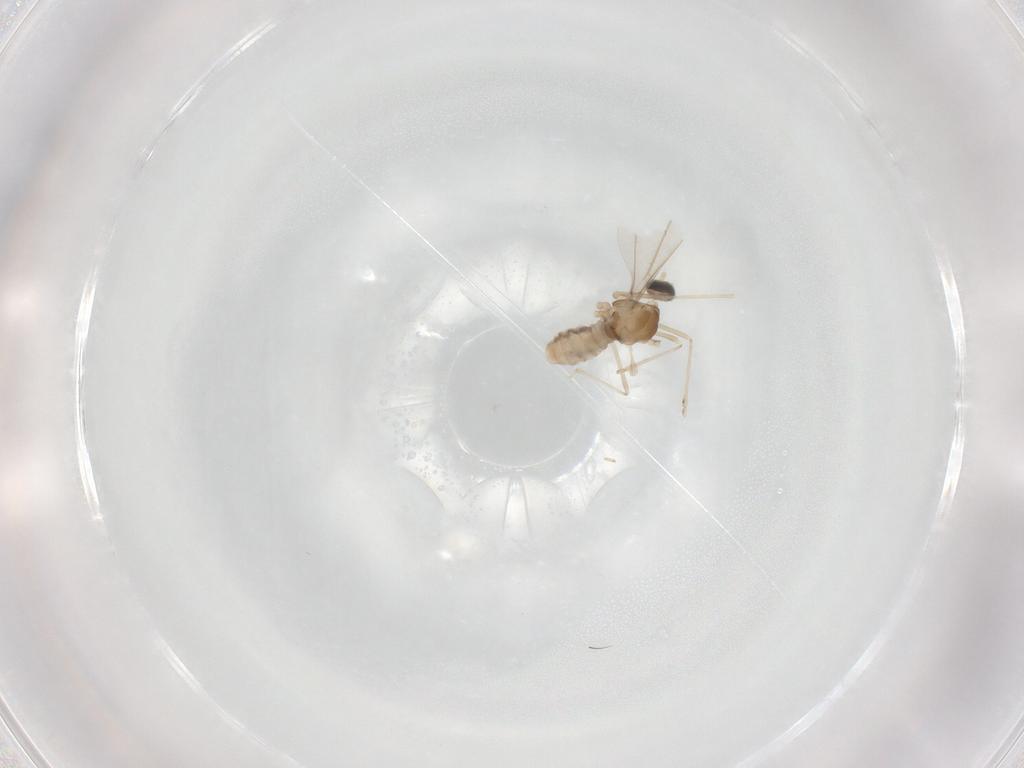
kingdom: Animalia
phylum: Arthropoda
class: Insecta
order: Diptera
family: Cecidomyiidae
